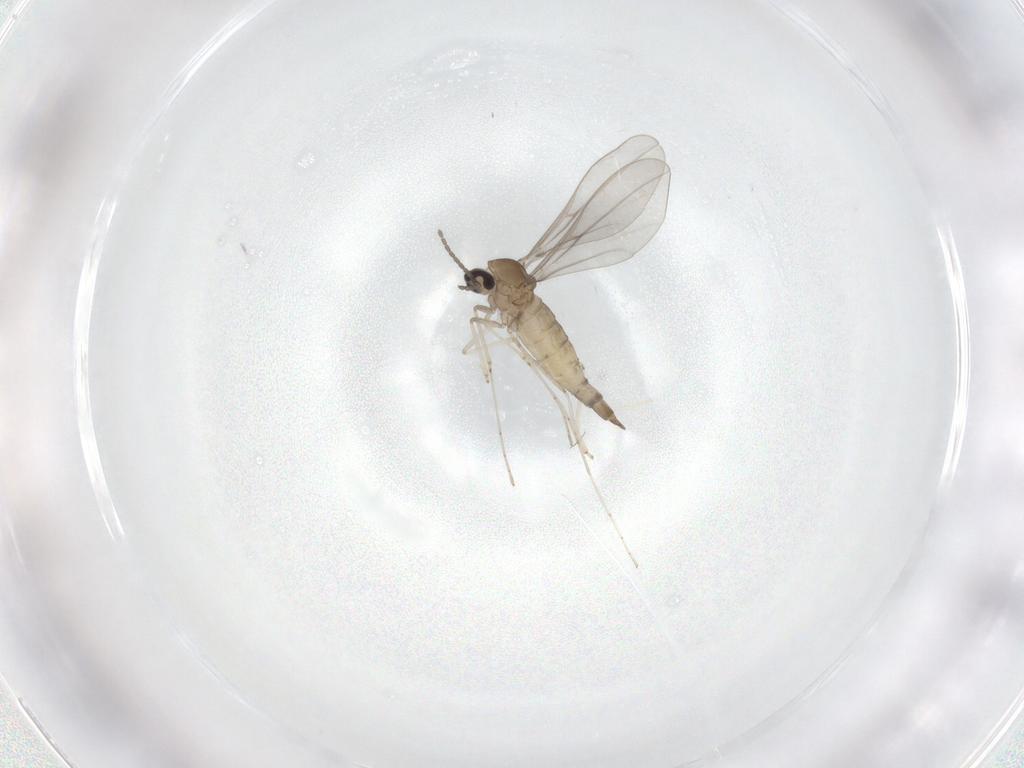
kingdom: Animalia
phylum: Arthropoda
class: Insecta
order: Diptera
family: Cecidomyiidae
